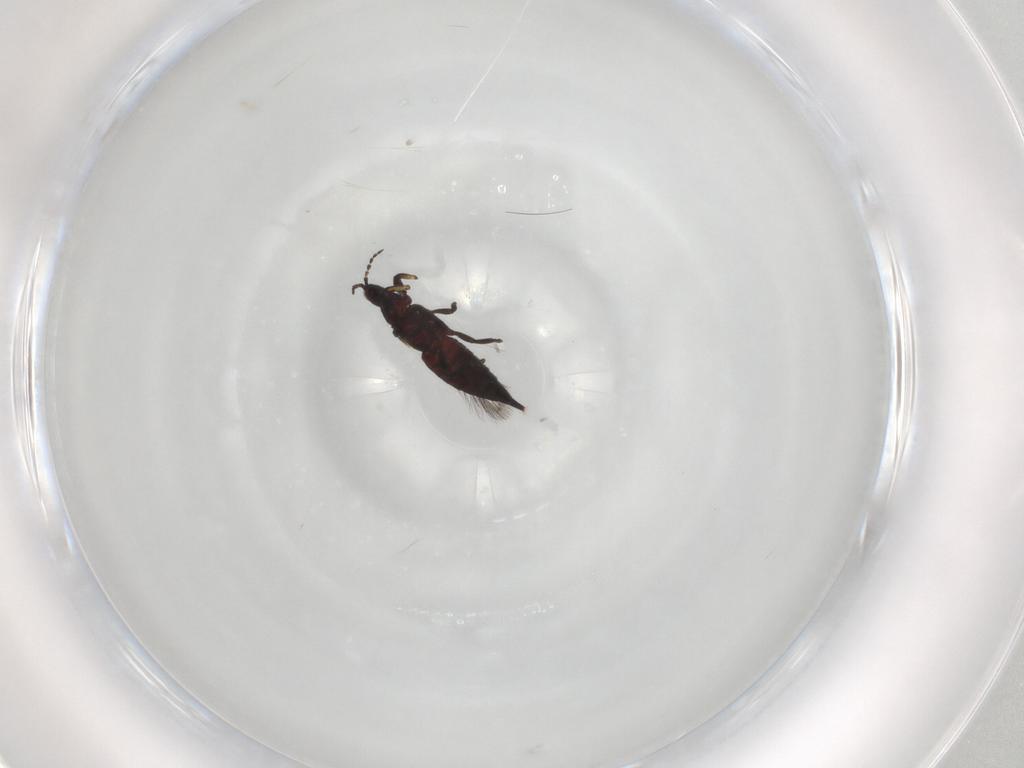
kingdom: Animalia
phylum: Arthropoda
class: Insecta
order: Thysanoptera
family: Phlaeothripidae
